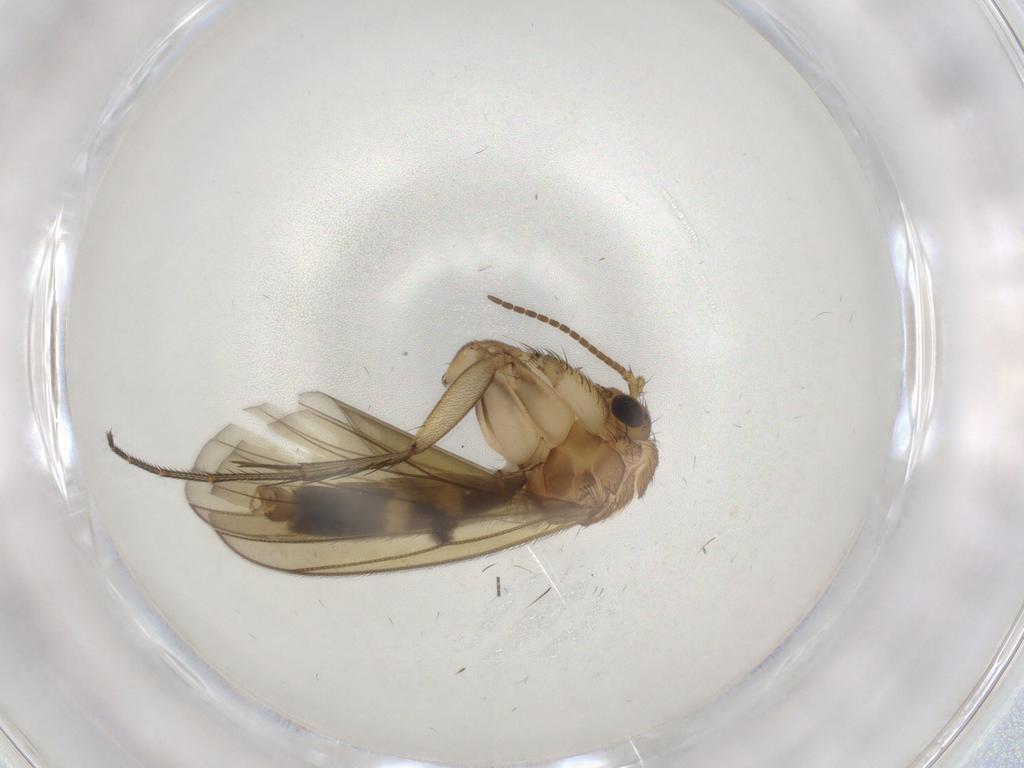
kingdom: Animalia
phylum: Arthropoda
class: Insecta
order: Diptera
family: Mycetophilidae
